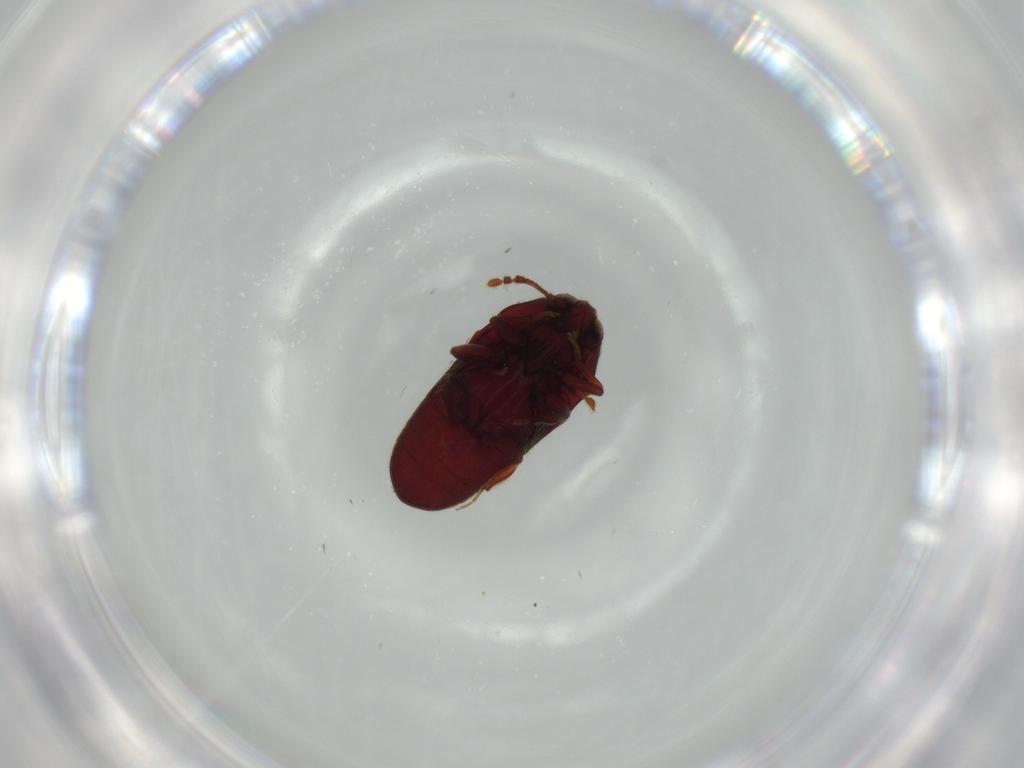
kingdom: Animalia
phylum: Arthropoda
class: Insecta
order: Coleoptera
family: Throscidae
